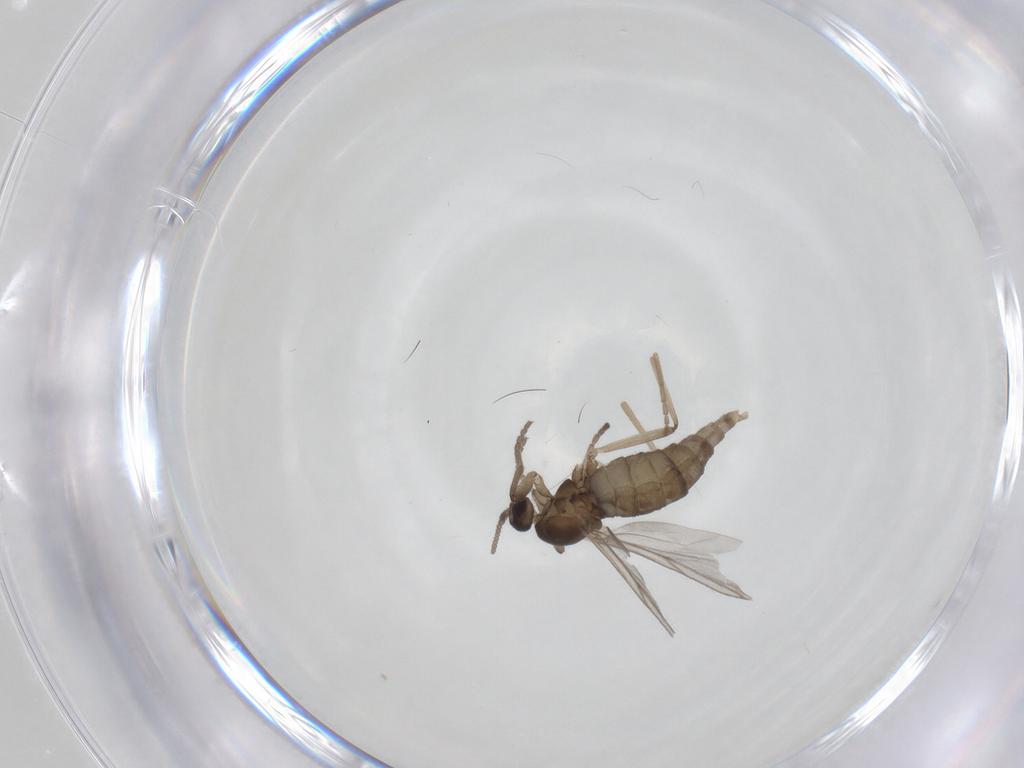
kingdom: Animalia
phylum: Arthropoda
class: Insecta
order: Diptera
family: Cecidomyiidae
